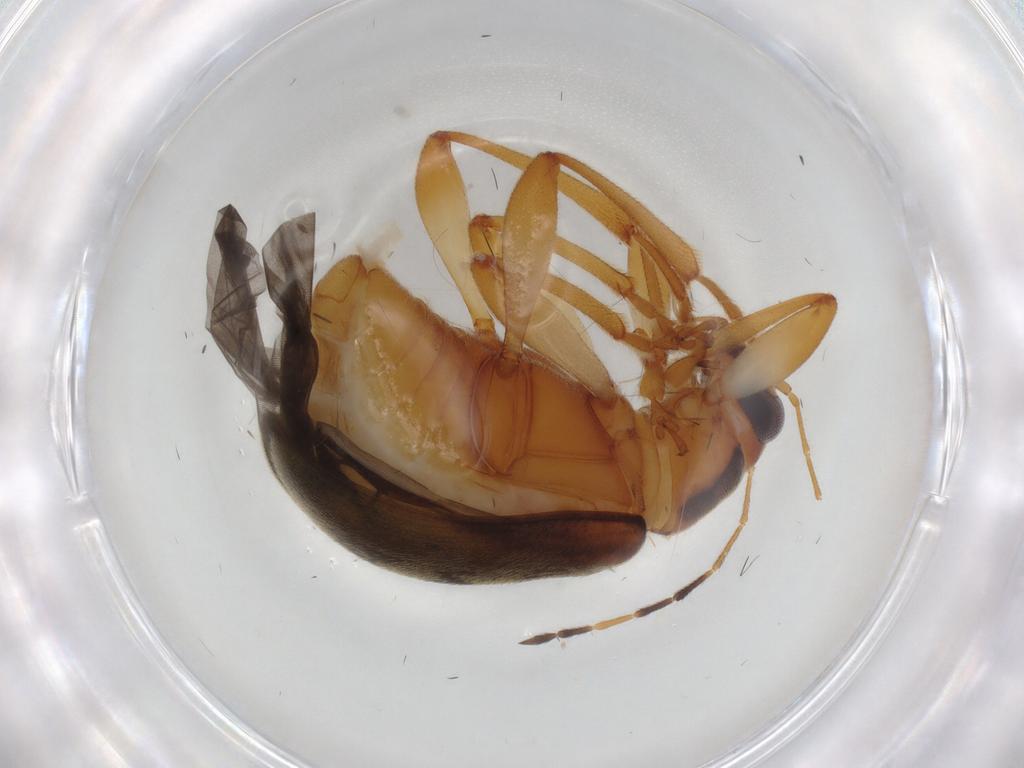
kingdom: Animalia
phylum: Arthropoda
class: Insecta
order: Coleoptera
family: Chrysomelidae
